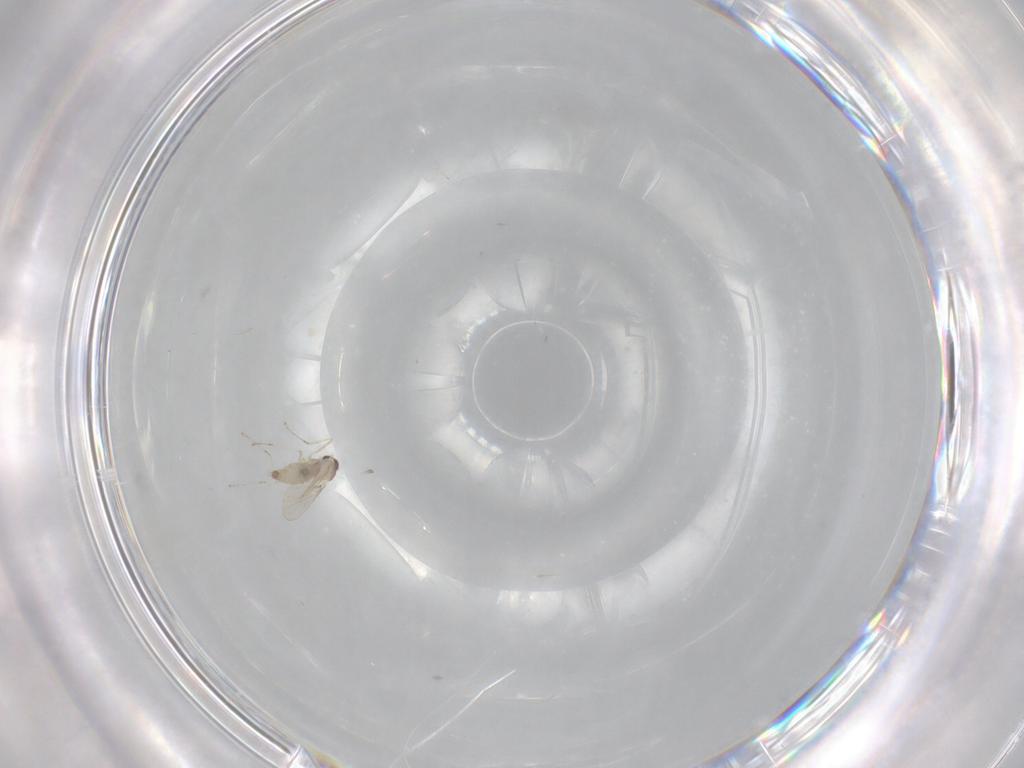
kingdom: Animalia
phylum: Arthropoda
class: Insecta
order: Diptera
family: Cecidomyiidae
